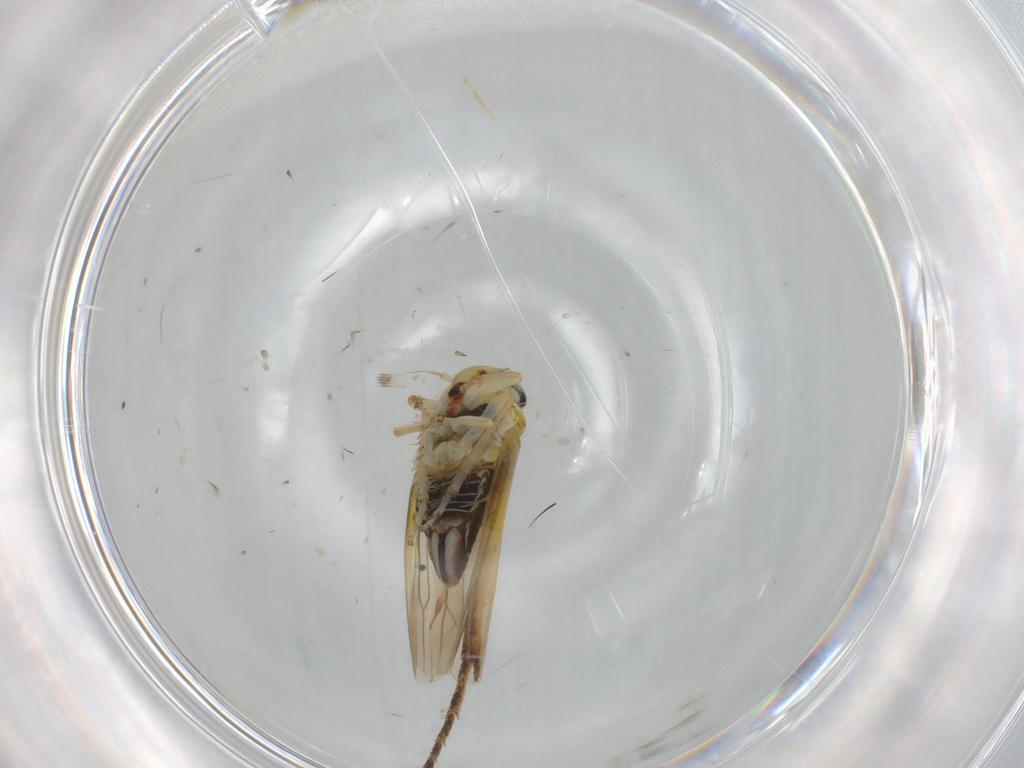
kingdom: Animalia
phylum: Arthropoda
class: Insecta
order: Hemiptera
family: Cicadellidae
